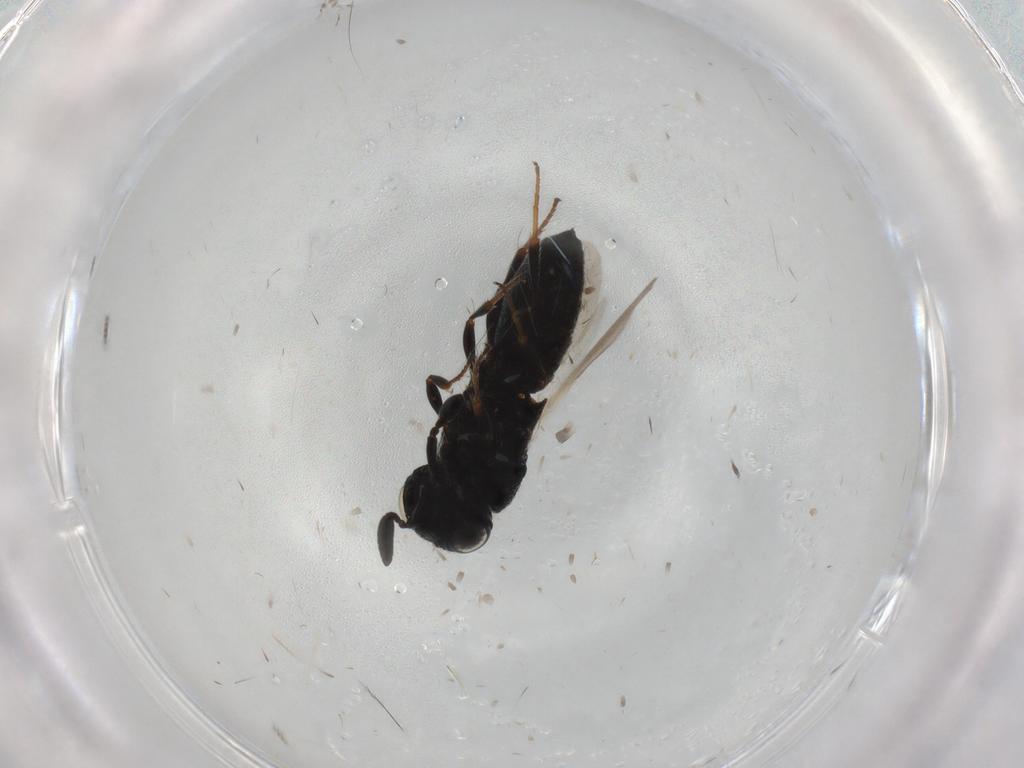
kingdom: Animalia
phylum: Arthropoda
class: Insecta
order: Hymenoptera
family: Scelionidae
